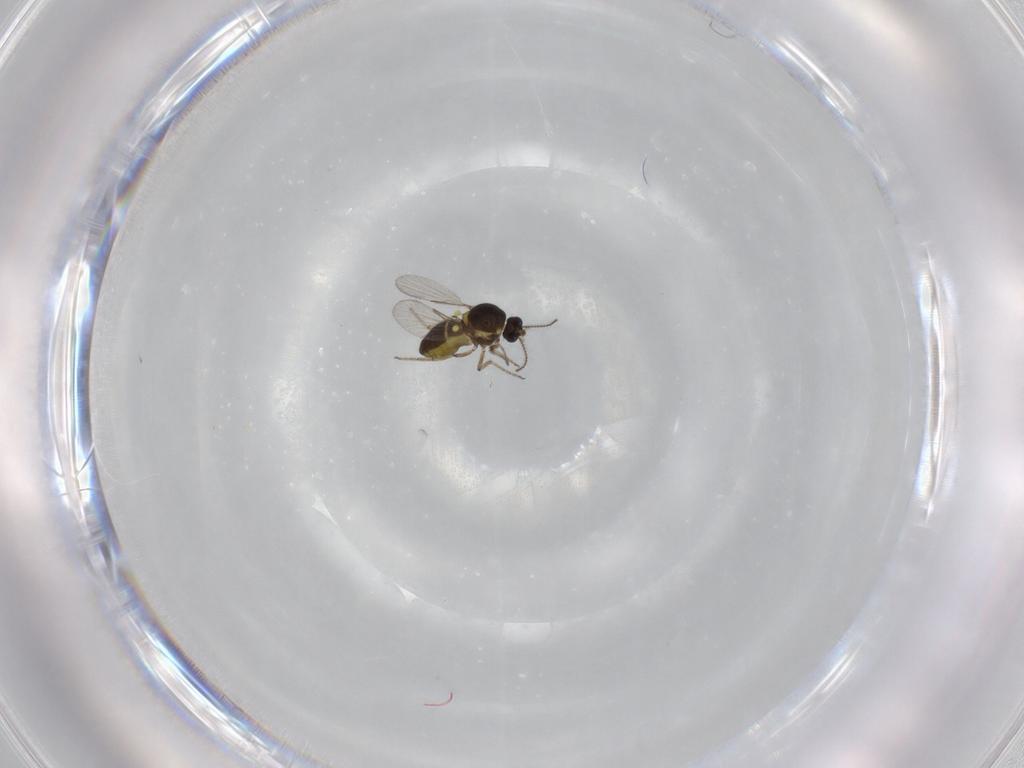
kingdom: Animalia
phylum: Arthropoda
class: Insecta
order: Diptera
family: Ceratopogonidae
